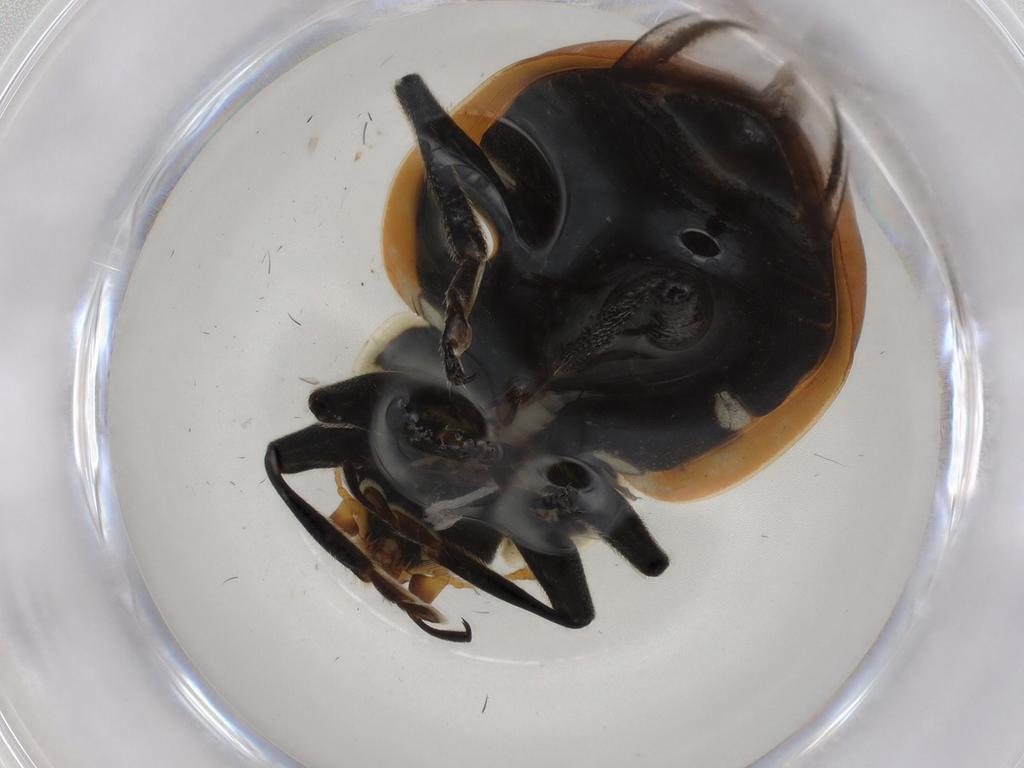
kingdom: Animalia
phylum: Arthropoda
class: Insecta
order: Coleoptera
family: Coccinellidae
